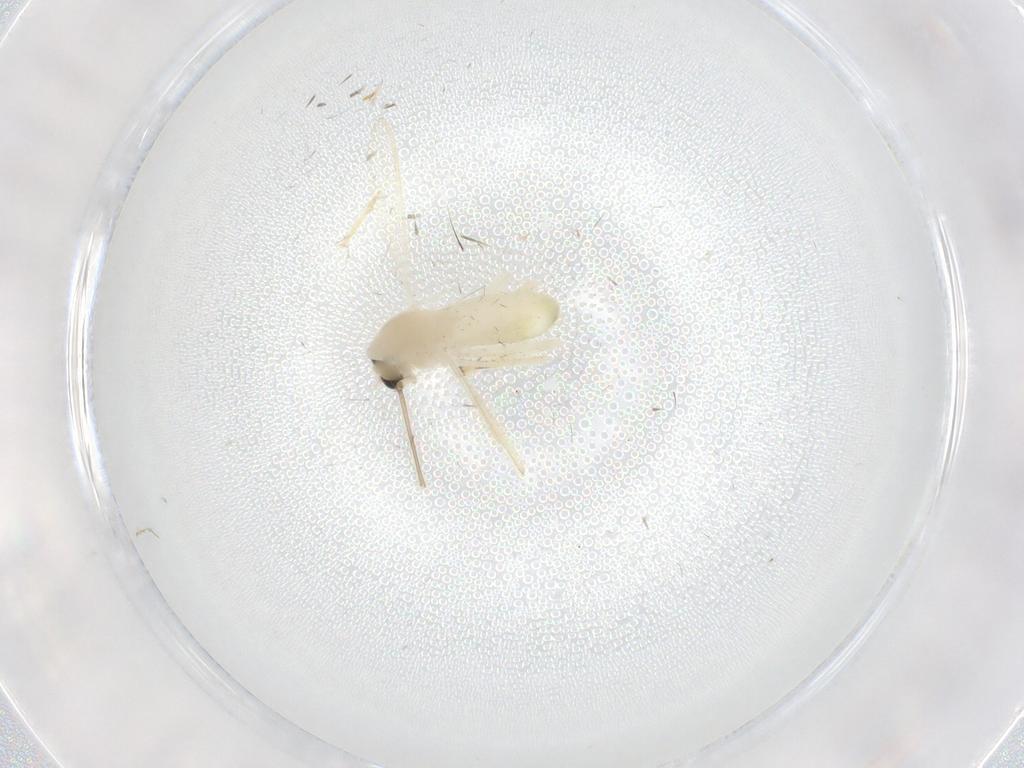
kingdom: Animalia
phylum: Arthropoda
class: Insecta
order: Diptera
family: Chironomidae
